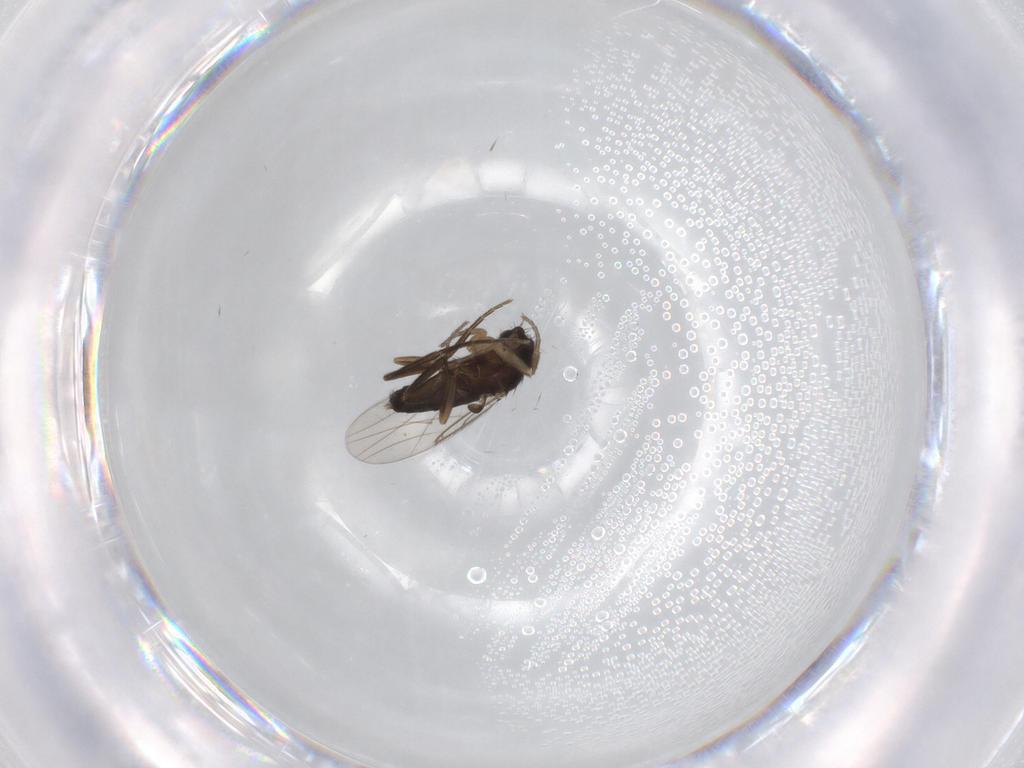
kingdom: Animalia
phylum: Arthropoda
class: Insecta
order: Diptera
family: Phoridae
